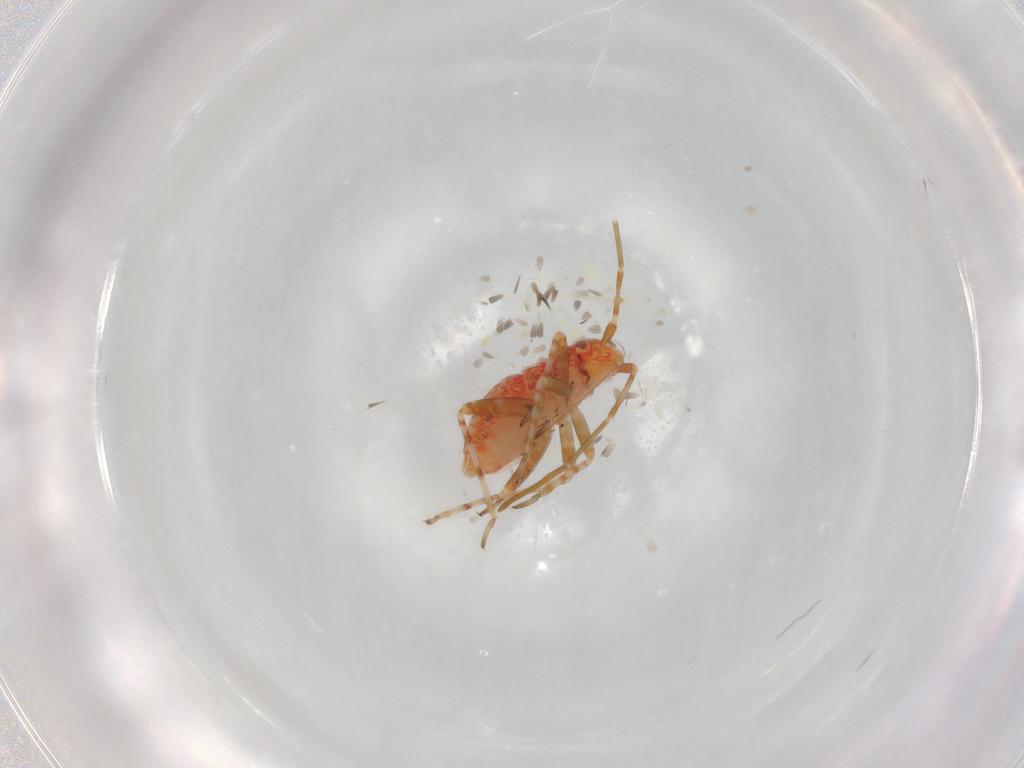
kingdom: Animalia
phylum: Arthropoda
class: Insecta
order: Hemiptera
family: Miridae
